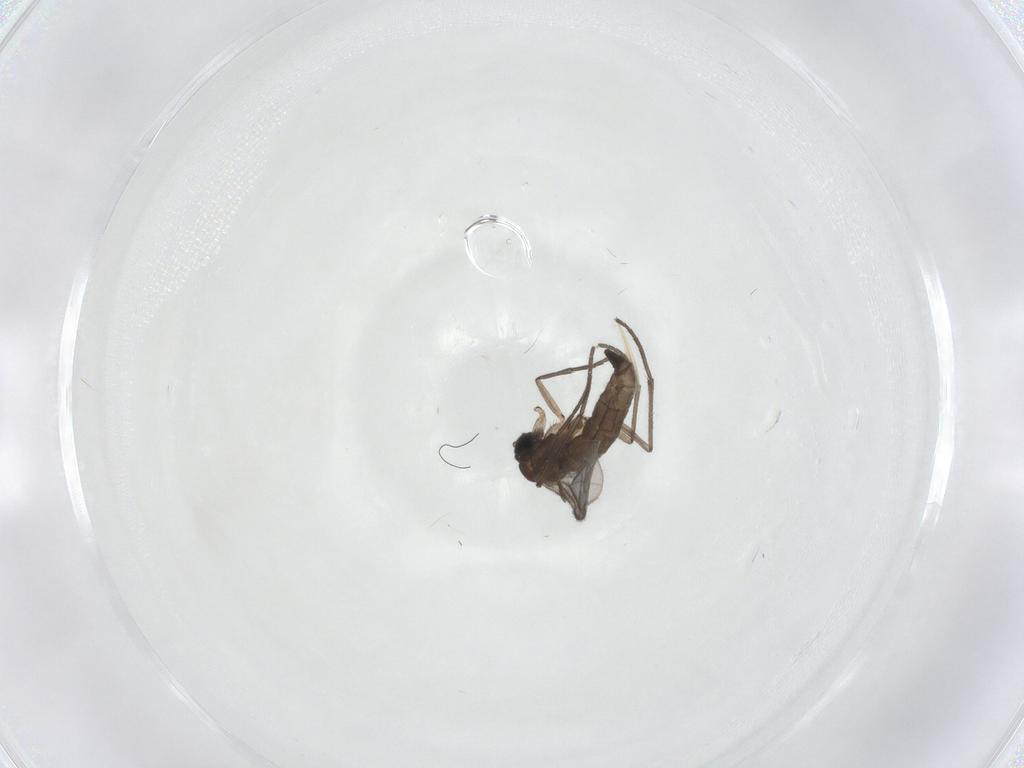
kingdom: Animalia
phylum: Arthropoda
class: Insecta
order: Diptera
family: Sciaridae
